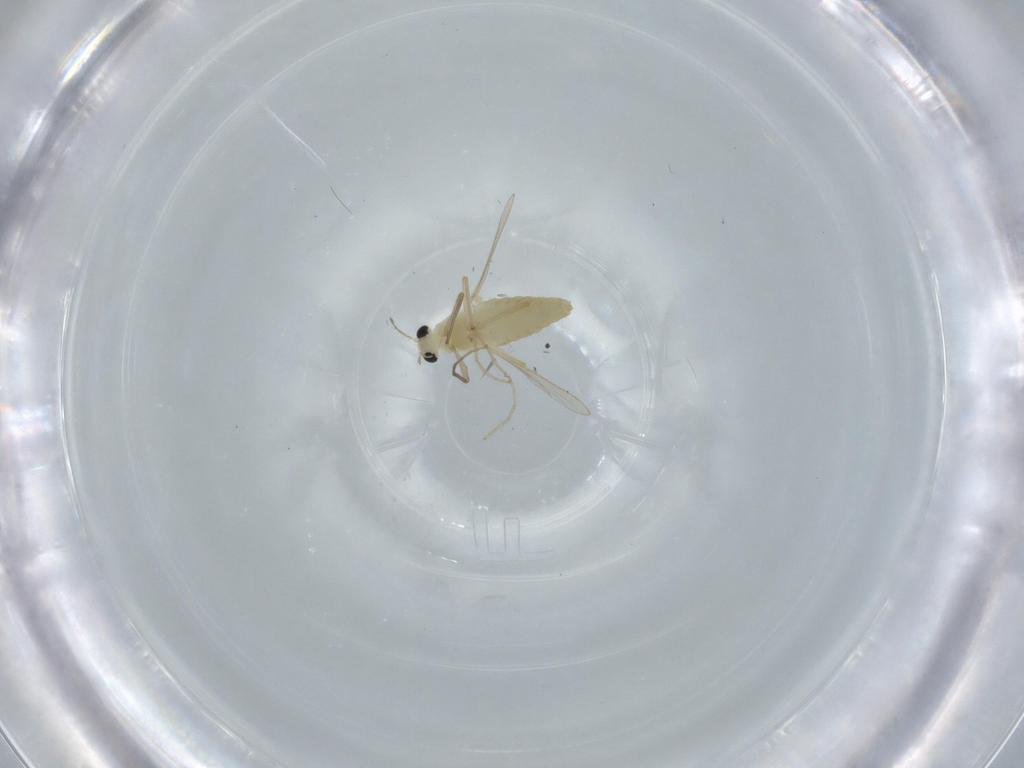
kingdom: Animalia
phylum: Arthropoda
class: Insecta
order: Diptera
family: Chironomidae
